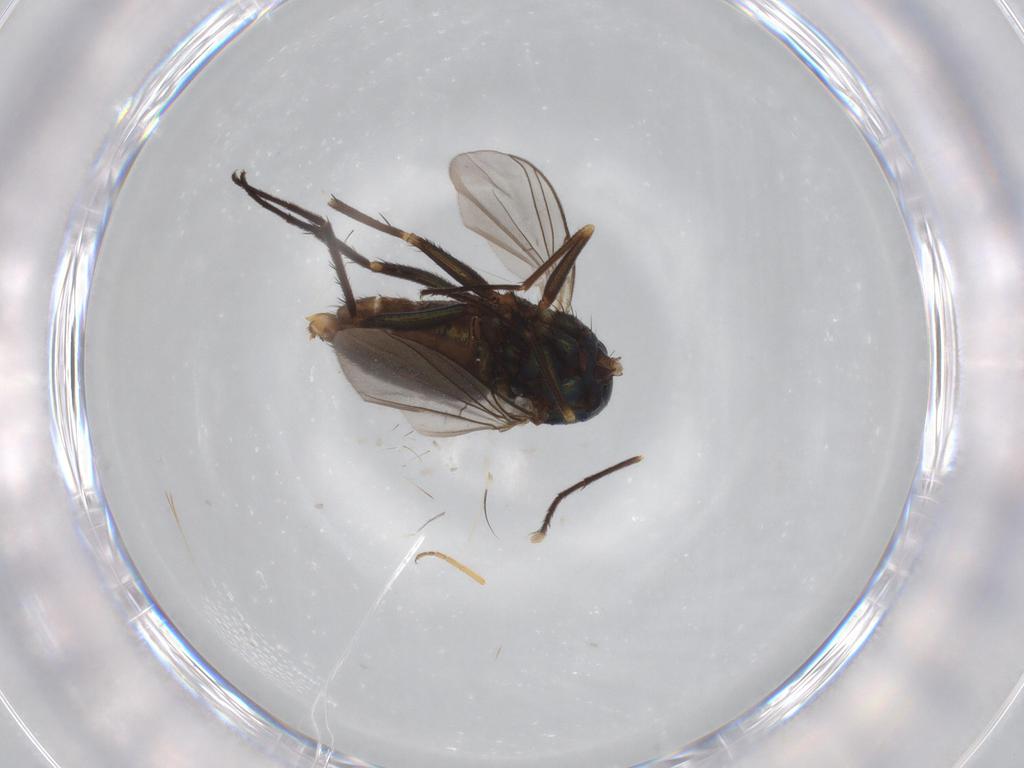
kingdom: Animalia
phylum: Arthropoda
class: Insecta
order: Diptera
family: Dolichopodidae
